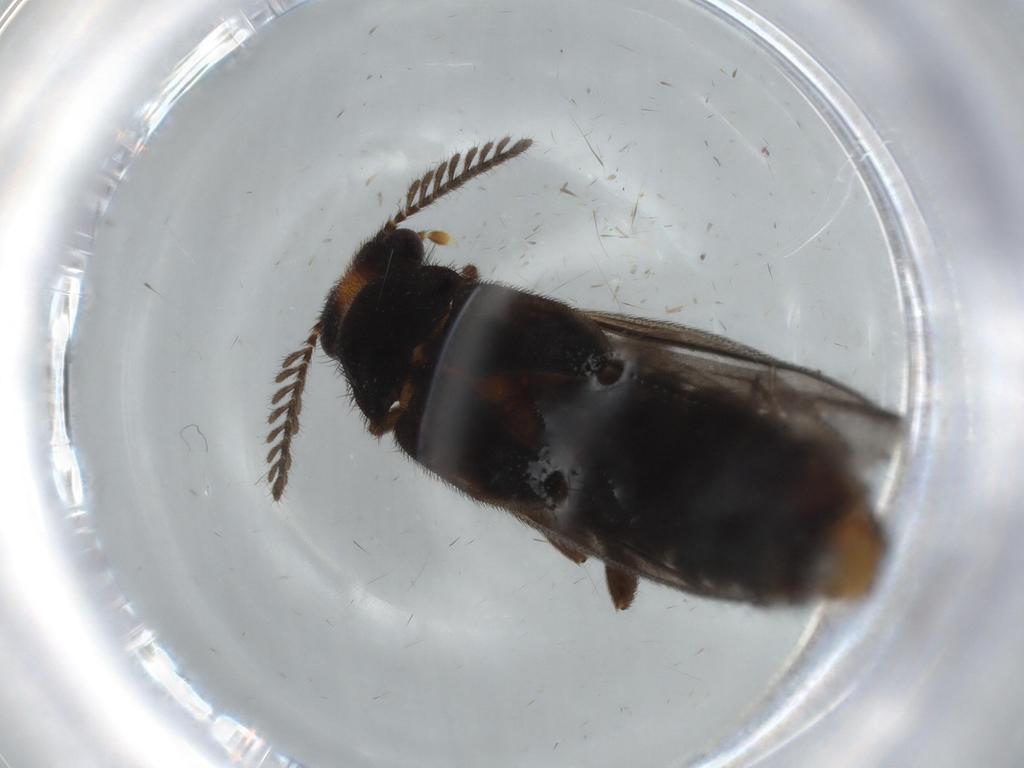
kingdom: Animalia
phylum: Arthropoda
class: Insecta
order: Coleoptera
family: Phengodidae
